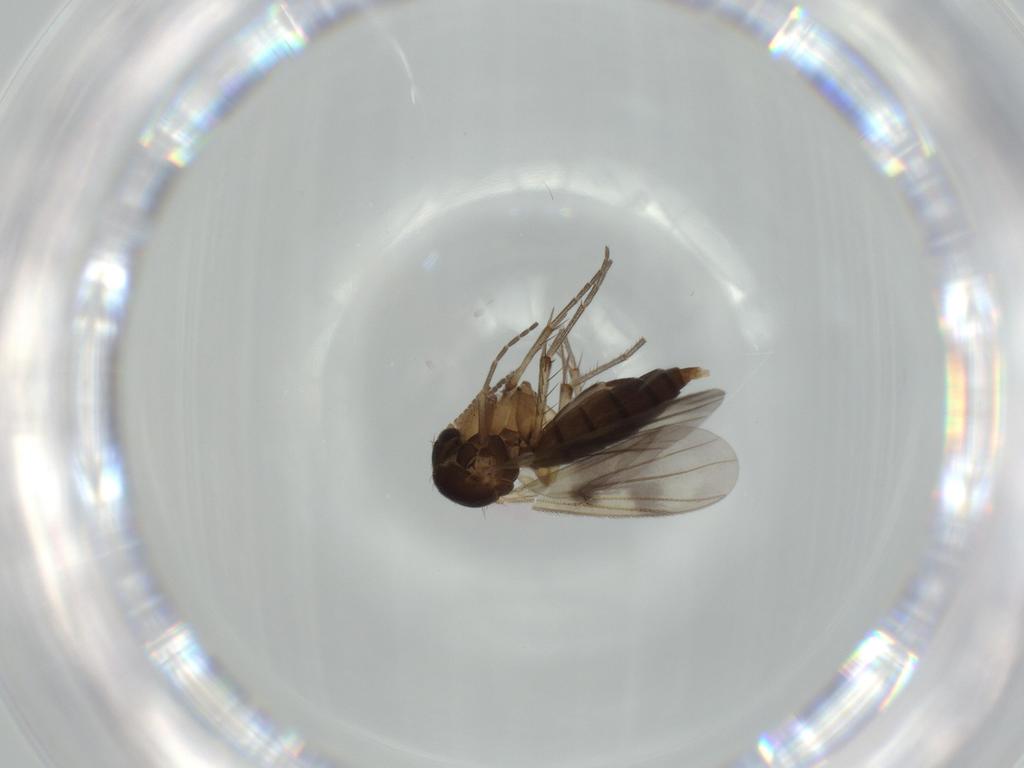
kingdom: Animalia
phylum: Arthropoda
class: Insecta
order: Diptera
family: Mycetophilidae
